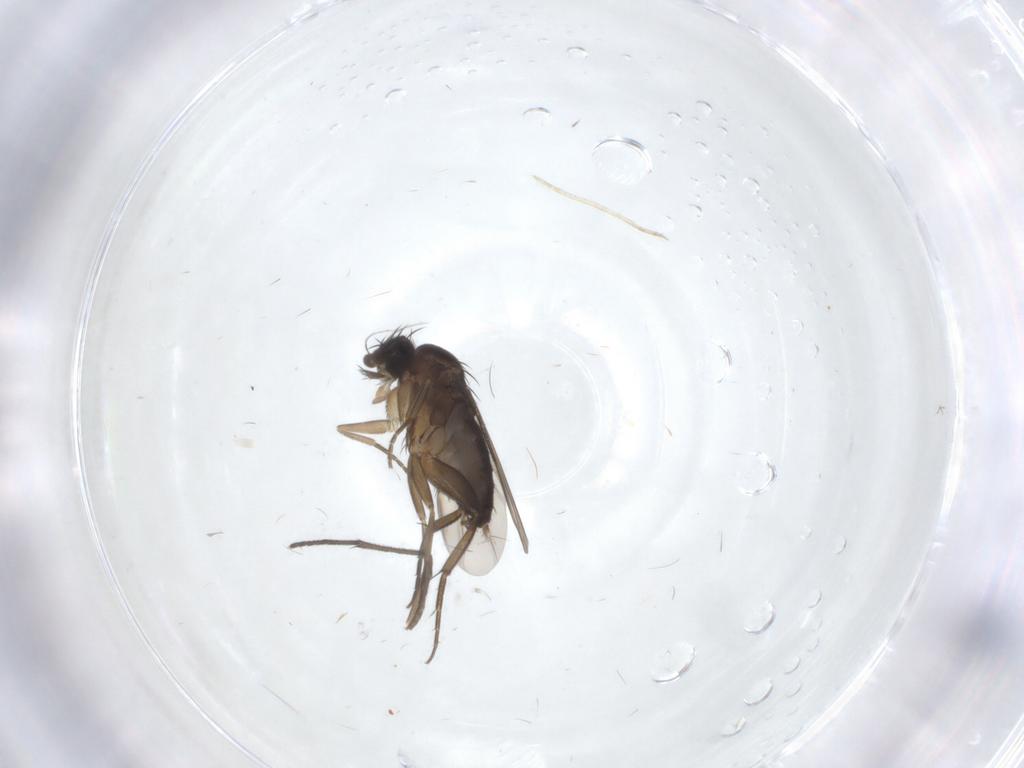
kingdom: Animalia
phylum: Arthropoda
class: Insecta
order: Diptera
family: Phoridae
